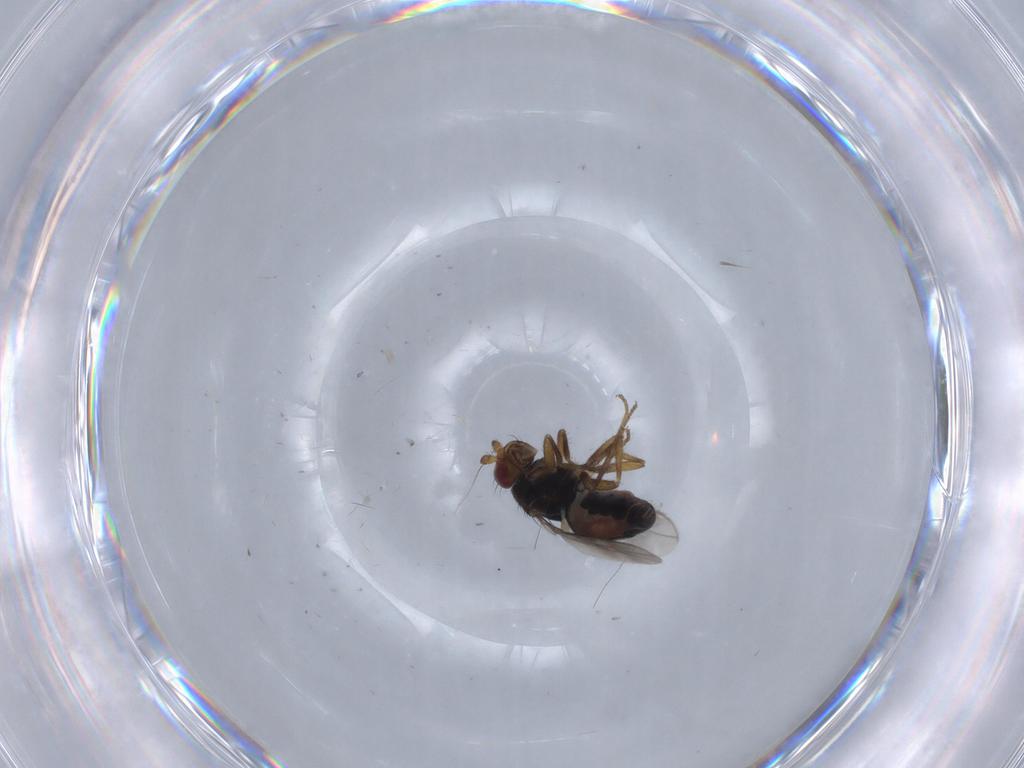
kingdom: Animalia
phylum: Arthropoda
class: Insecta
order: Diptera
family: Sphaeroceridae
